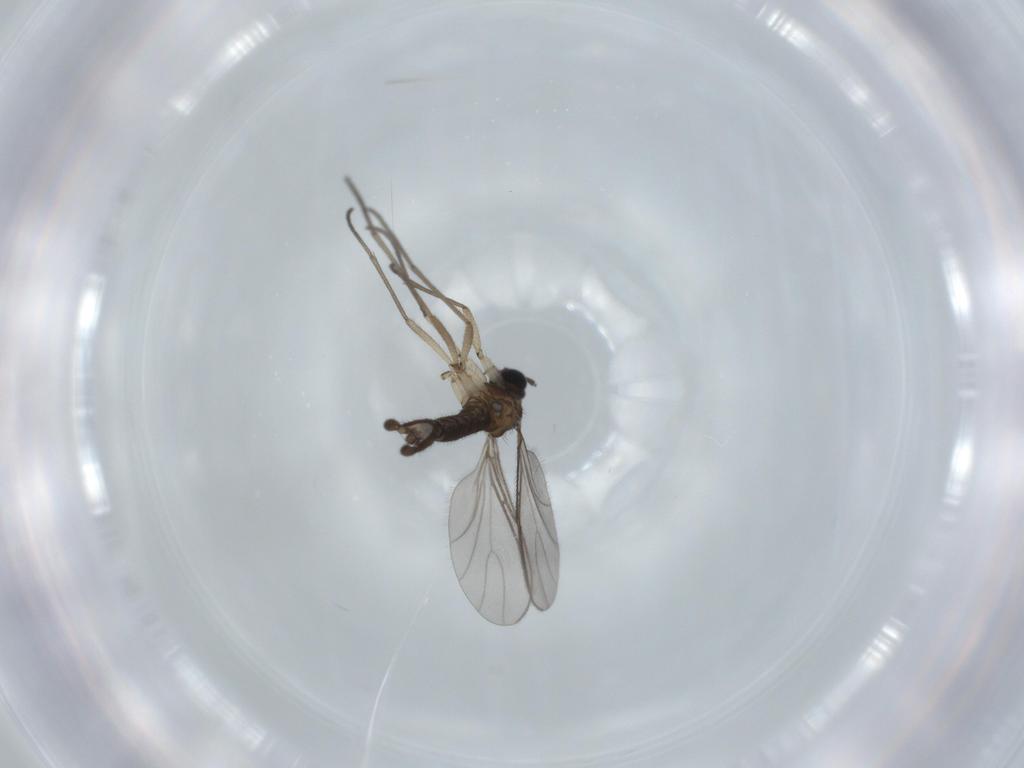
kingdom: Animalia
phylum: Arthropoda
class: Insecta
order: Diptera
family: Sciaridae
